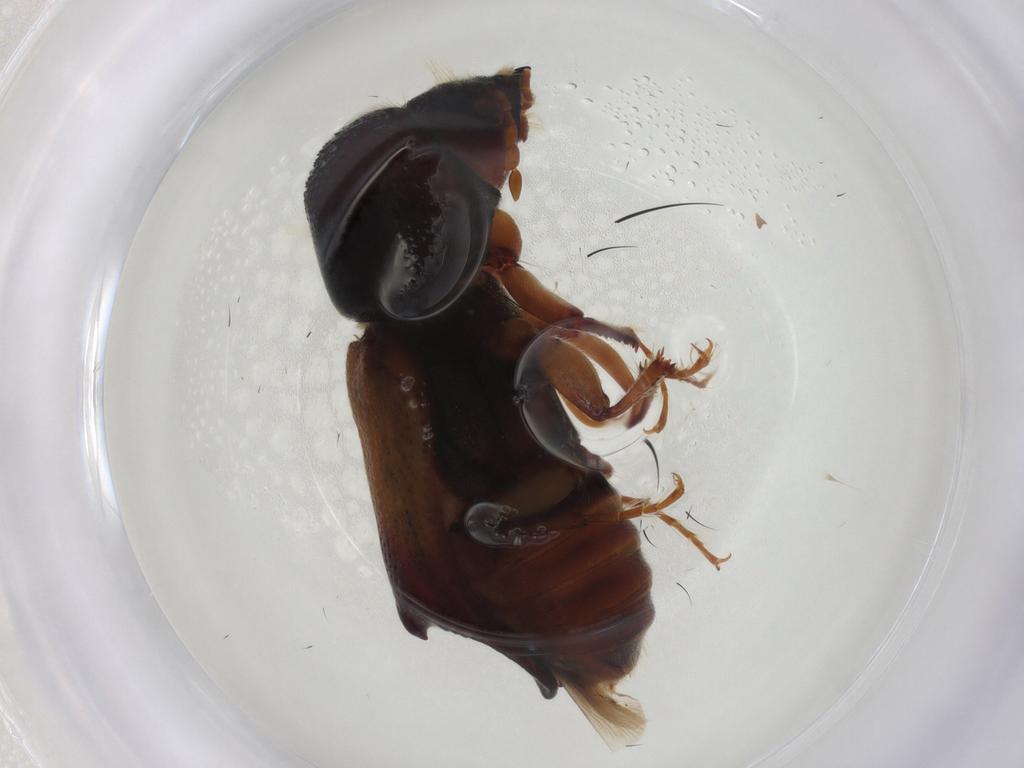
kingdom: Animalia
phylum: Arthropoda
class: Insecta
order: Coleoptera
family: Bostrichidae
